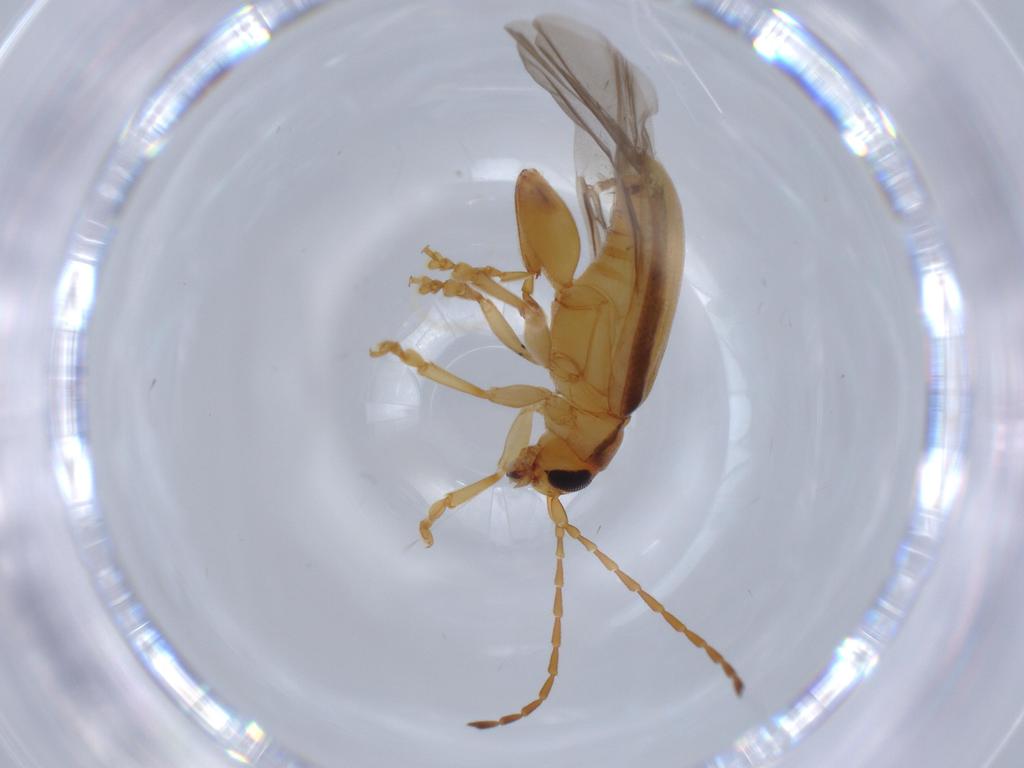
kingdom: Animalia
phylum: Arthropoda
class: Insecta
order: Coleoptera
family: Chrysomelidae
